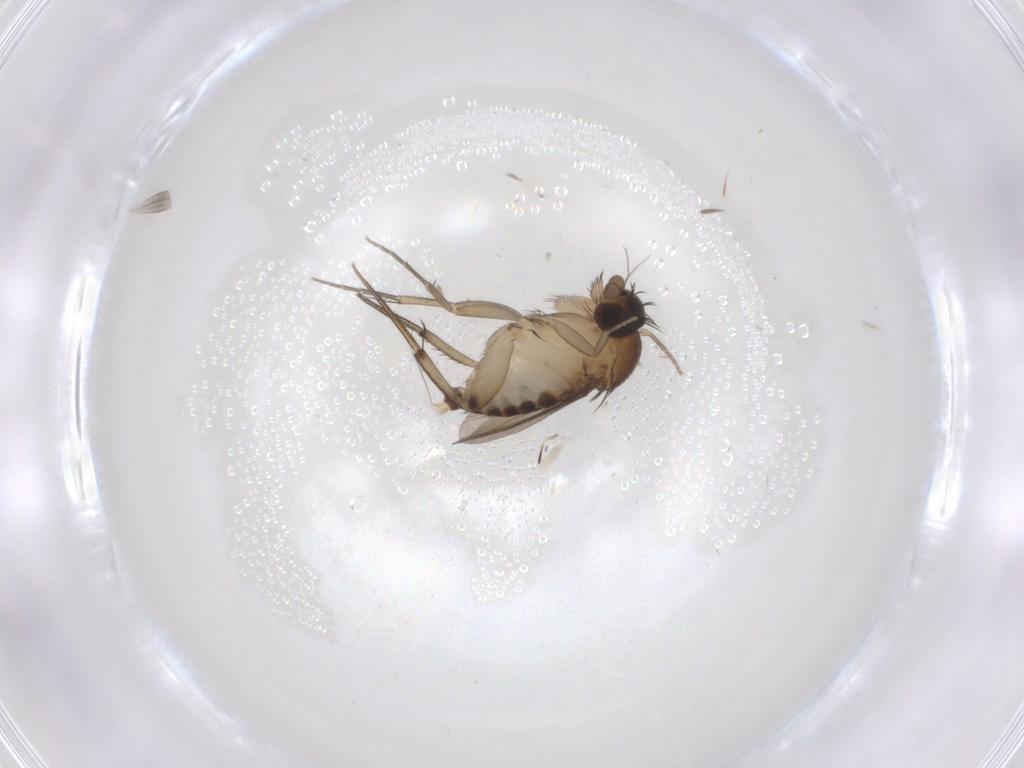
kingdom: Animalia
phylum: Arthropoda
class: Insecta
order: Diptera
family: Phoridae
